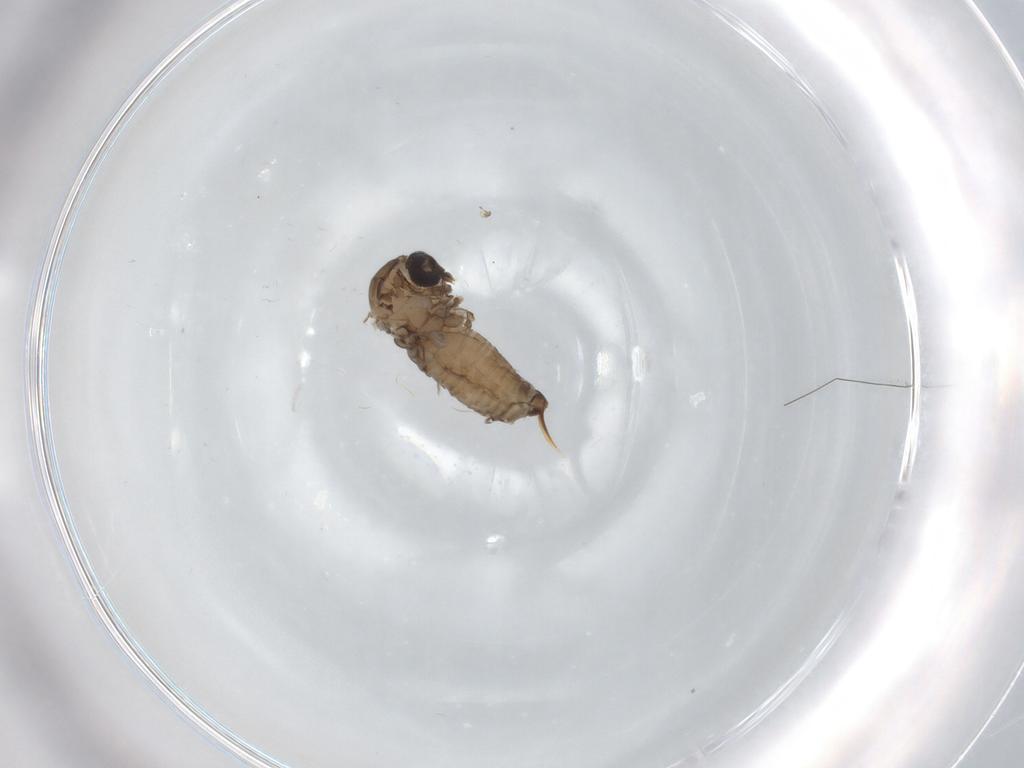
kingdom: Animalia
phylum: Arthropoda
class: Insecta
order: Diptera
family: Psychodidae
